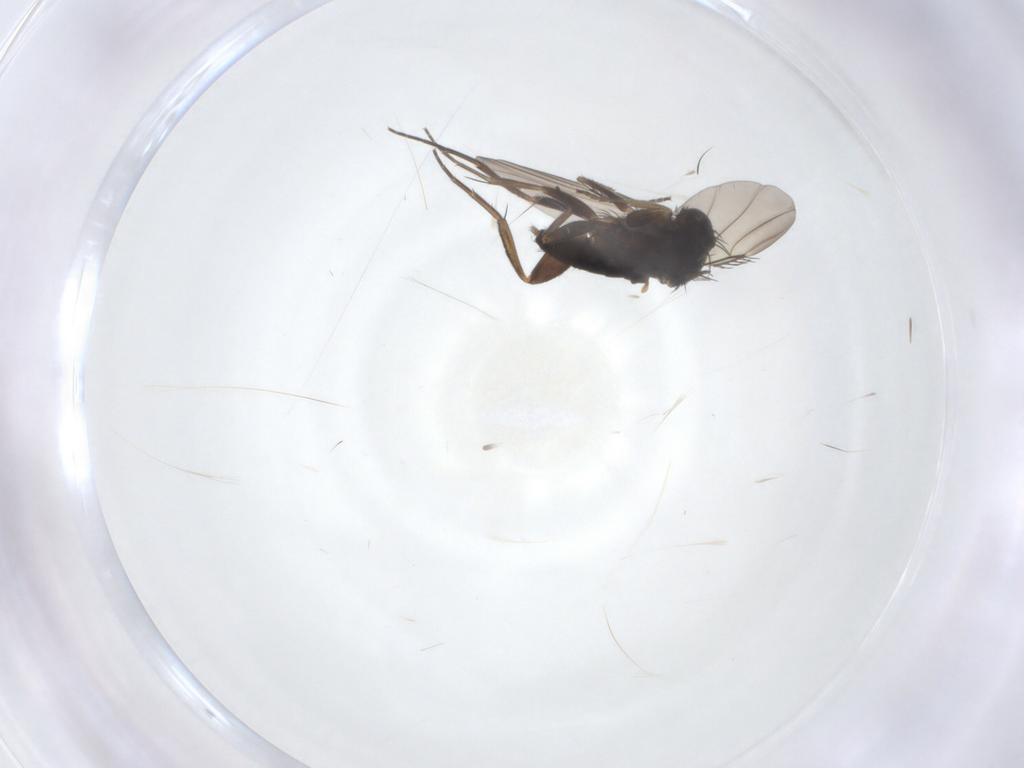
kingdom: Animalia
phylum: Arthropoda
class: Insecta
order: Diptera
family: Phoridae
